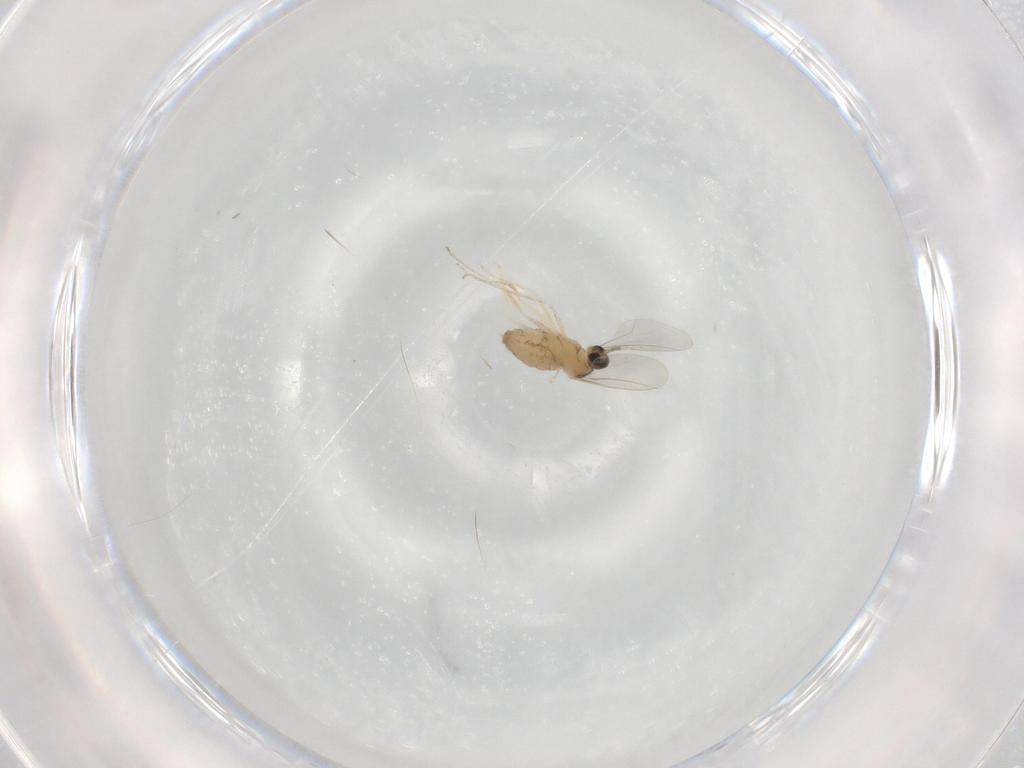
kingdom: Animalia
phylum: Arthropoda
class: Insecta
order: Diptera
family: Cecidomyiidae
